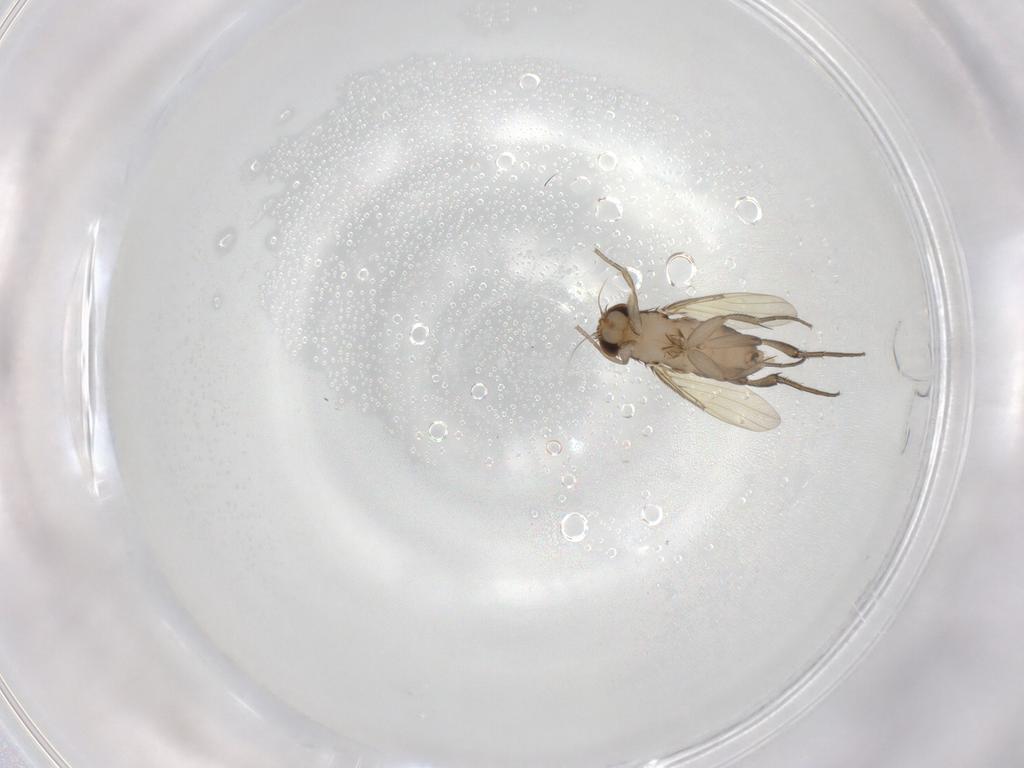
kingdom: Animalia
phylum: Arthropoda
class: Insecta
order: Diptera
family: Phoridae
